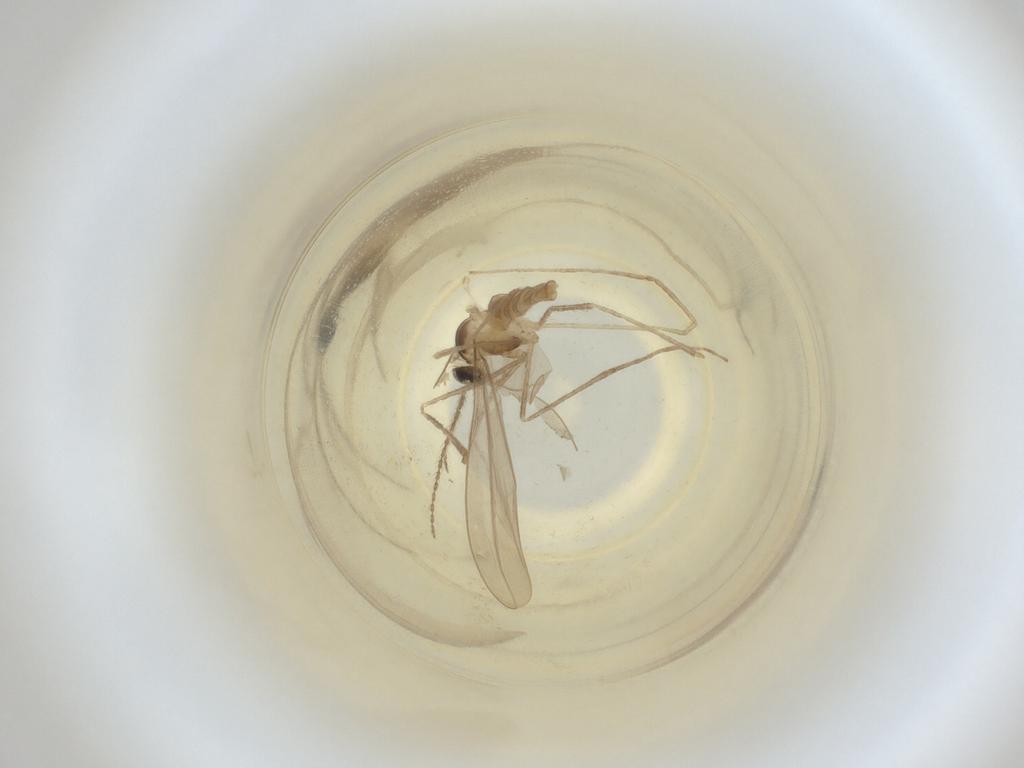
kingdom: Animalia
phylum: Arthropoda
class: Insecta
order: Diptera
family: Cecidomyiidae
